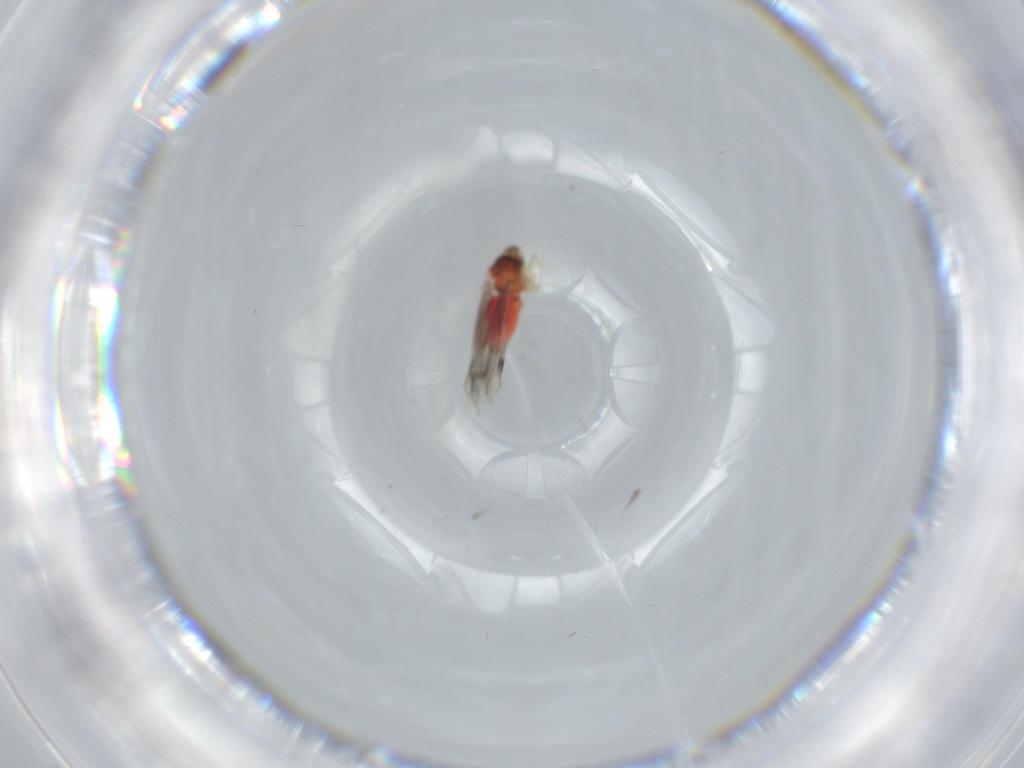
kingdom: Animalia
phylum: Arthropoda
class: Insecta
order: Hemiptera
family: Aleyrodidae
